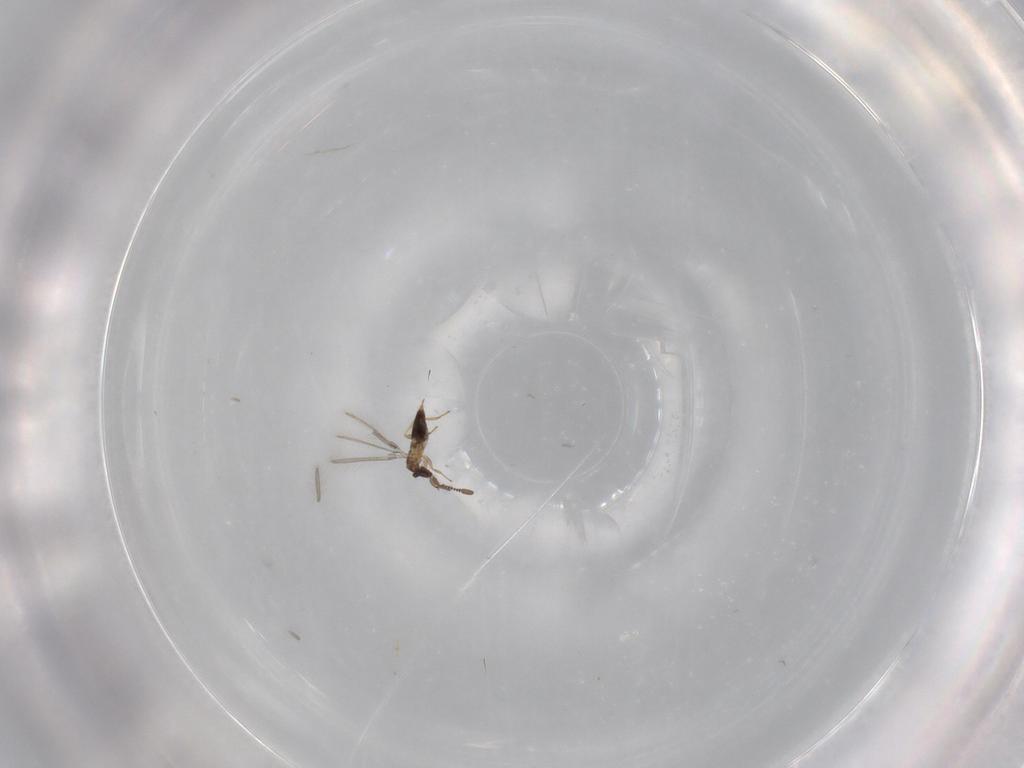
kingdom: Animalia
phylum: Arthropoda
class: Insecta
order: Hymenoptera
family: Mymaridae
